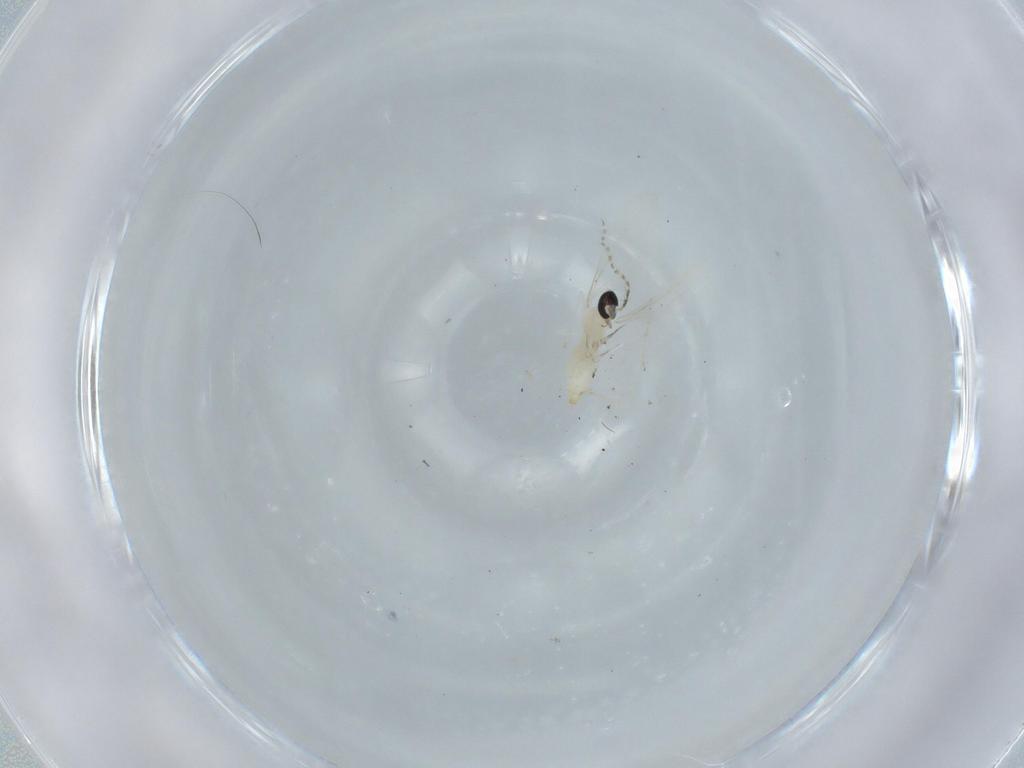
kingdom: Animalia
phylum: Arthropoda
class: Insecta
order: Diptera
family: Cecidomyiidae
